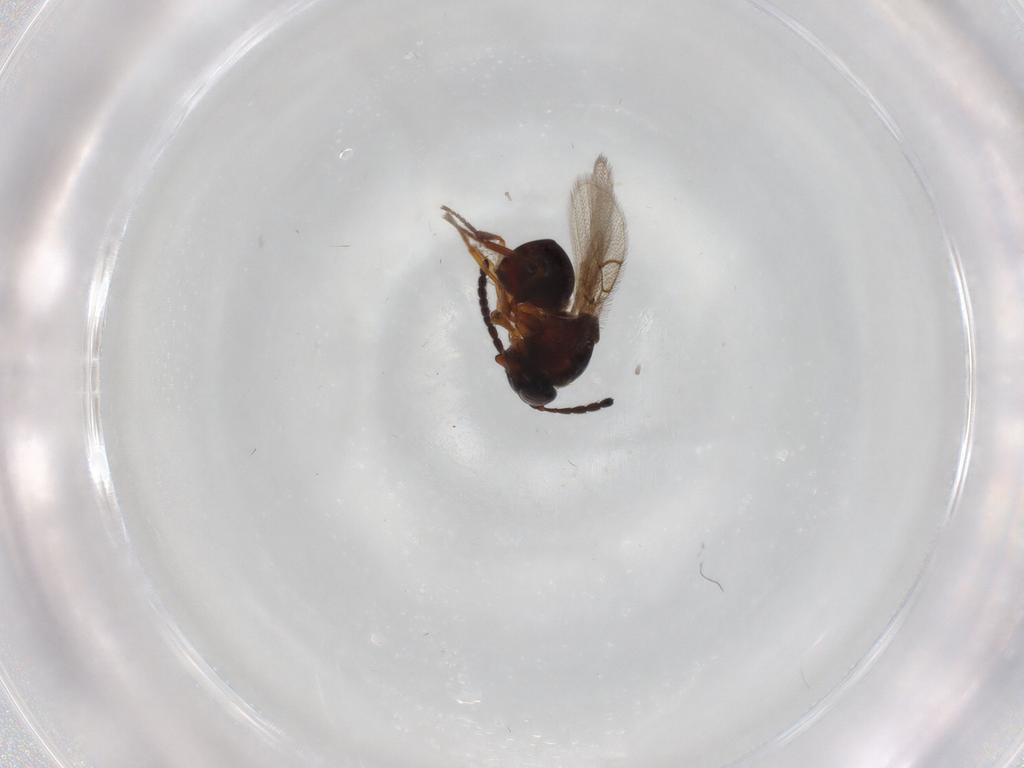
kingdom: Animalia
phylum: Arthropoda
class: Insecta
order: Hymenoptera
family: Figitidae
